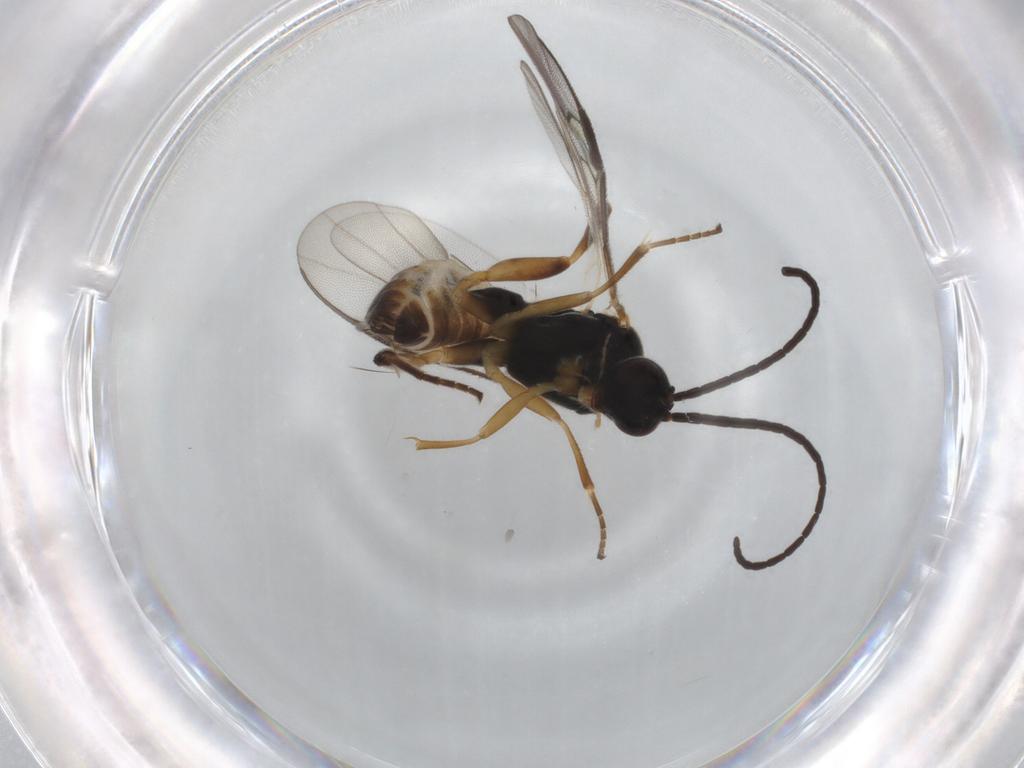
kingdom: Animalia
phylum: Arthropoda
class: Insecta
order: Hymenoptera
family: Braconidae
